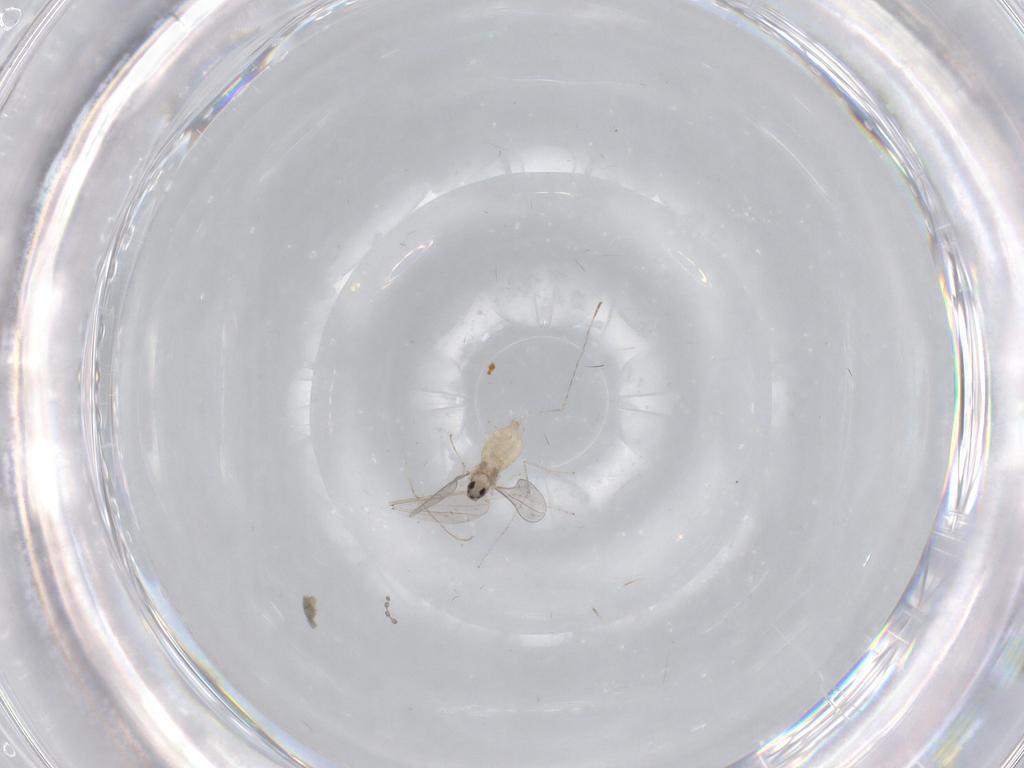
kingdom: Animalia
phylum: Arthropoda
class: Insecta
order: Diptera
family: Cecidomyiidae
